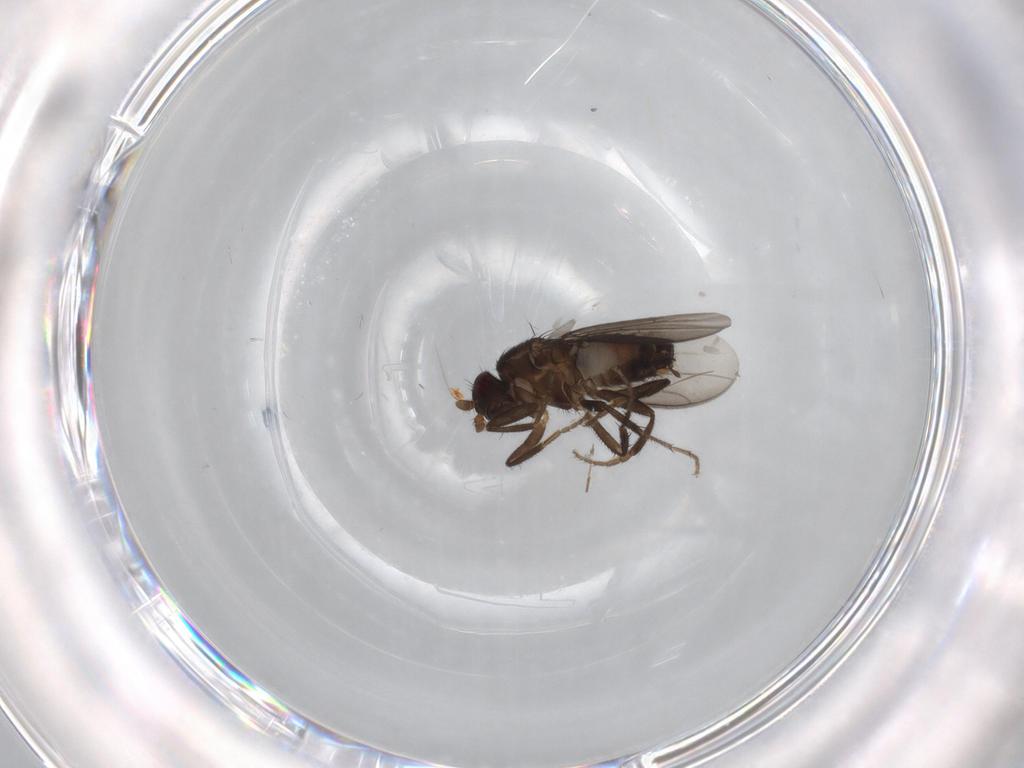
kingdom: Animalia
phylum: Arthropoda
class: Insecta
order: Diptera
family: Sphaeroceridae
